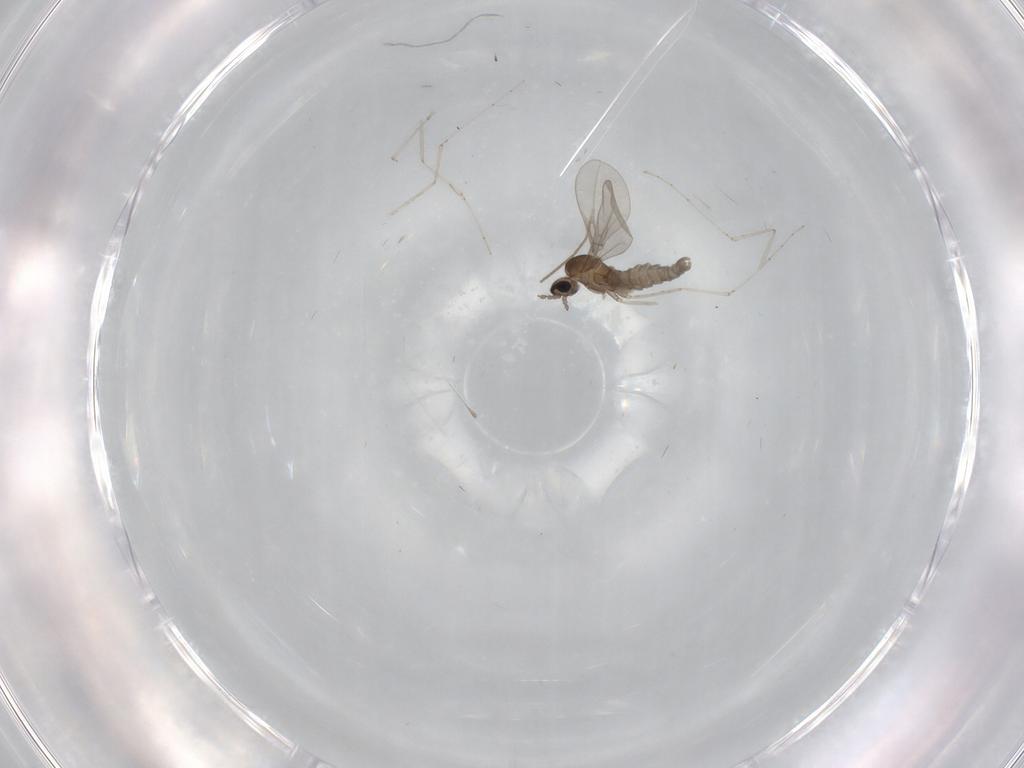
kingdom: Animalia
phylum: Arthropoda
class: Insecta
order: Diptera
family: Cecidomyiidae
